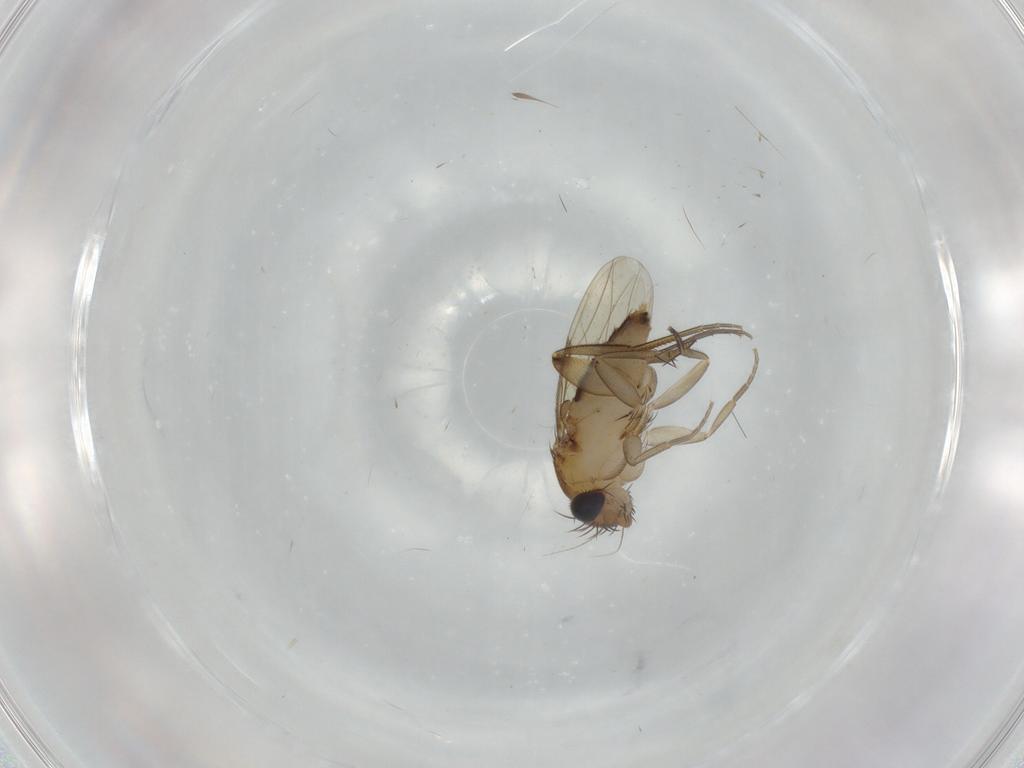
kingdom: Animalia
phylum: Arthropoda
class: Insecta
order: Diptera
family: Phoridae
